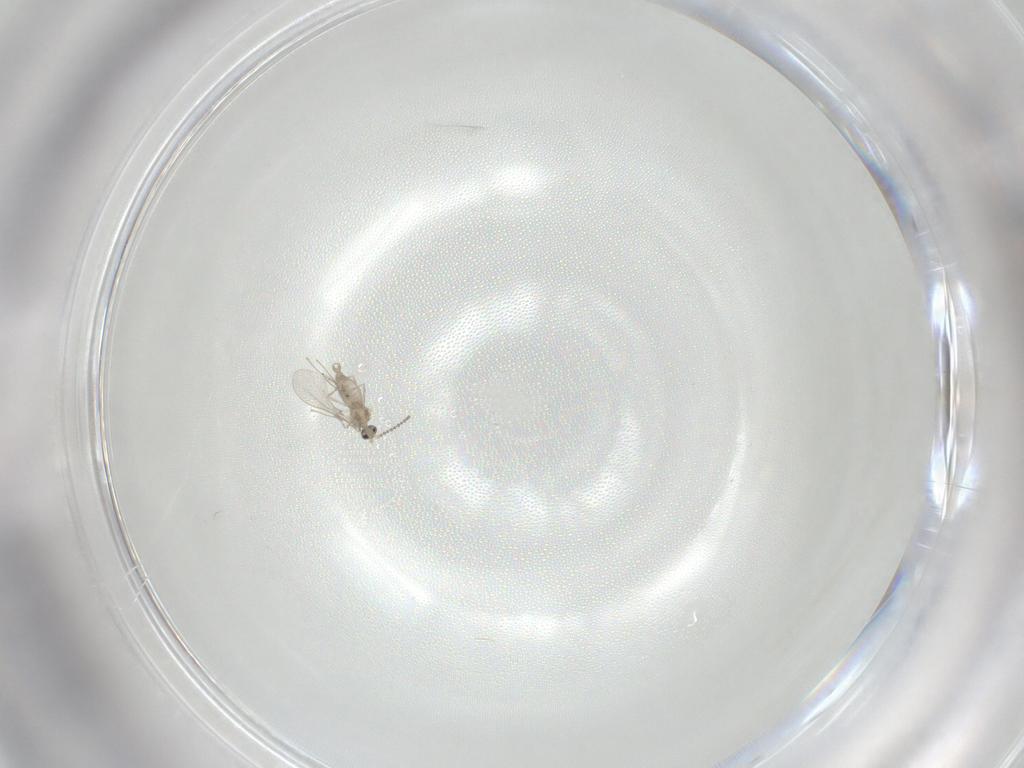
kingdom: Animalia
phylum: Arthropoda
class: Insecta
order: Diptera
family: Cecidomyiidae
